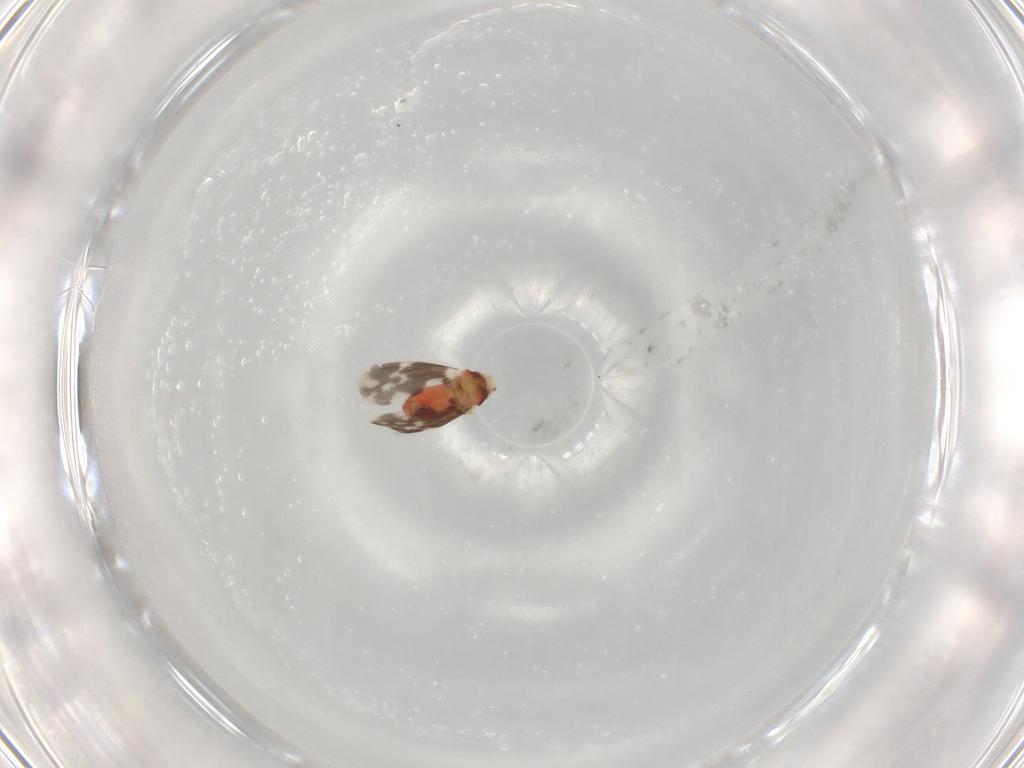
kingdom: Animalia
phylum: Arthropoda
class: Insecta
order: Hemiptera
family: Aleyrodidae
